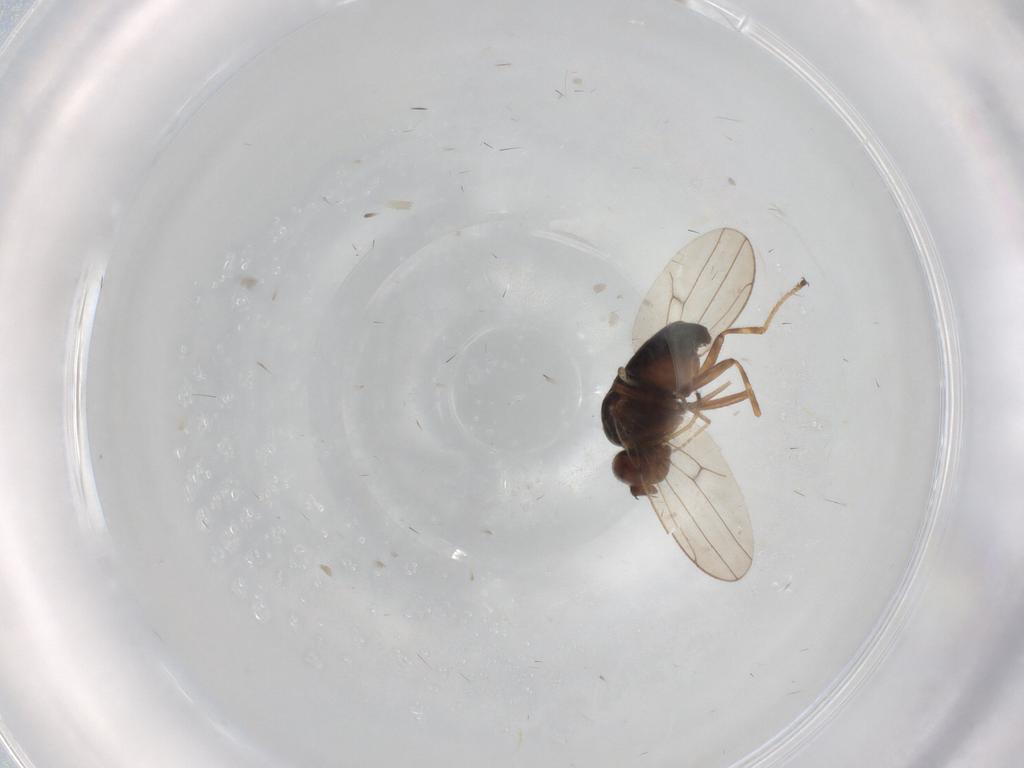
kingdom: Animalia
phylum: Arthropoda
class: Insecta
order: Diptera
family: Ephydridae
